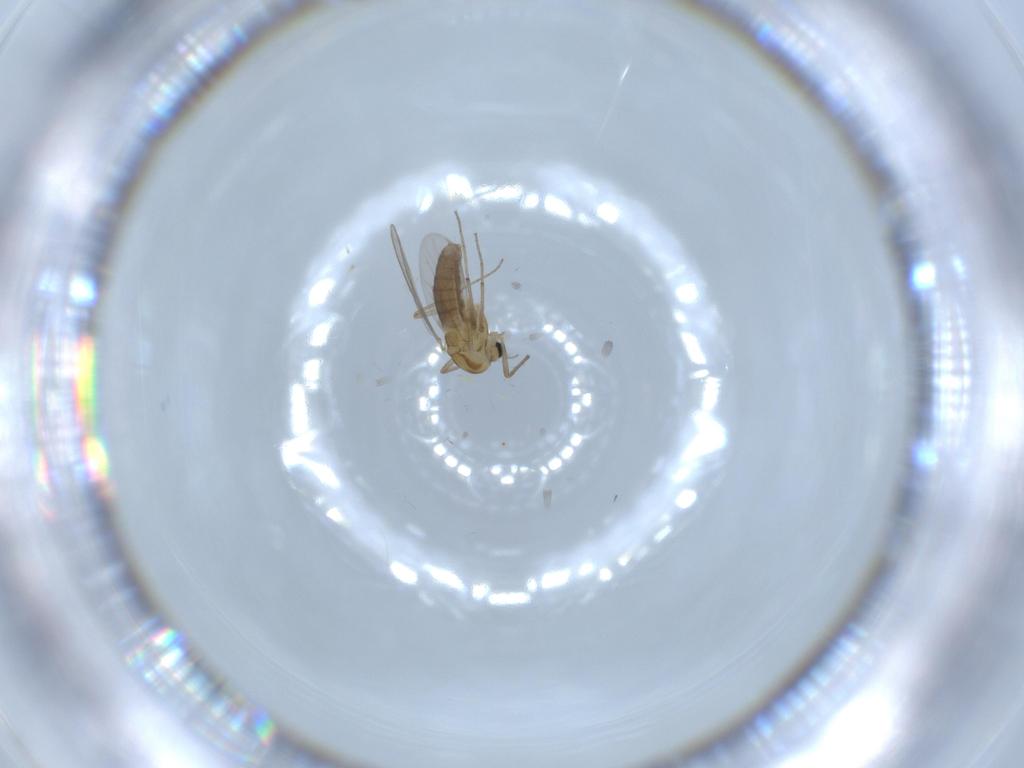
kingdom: Animalia
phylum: Arthropoda
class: Insecta
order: Diptera
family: Chironomidae
